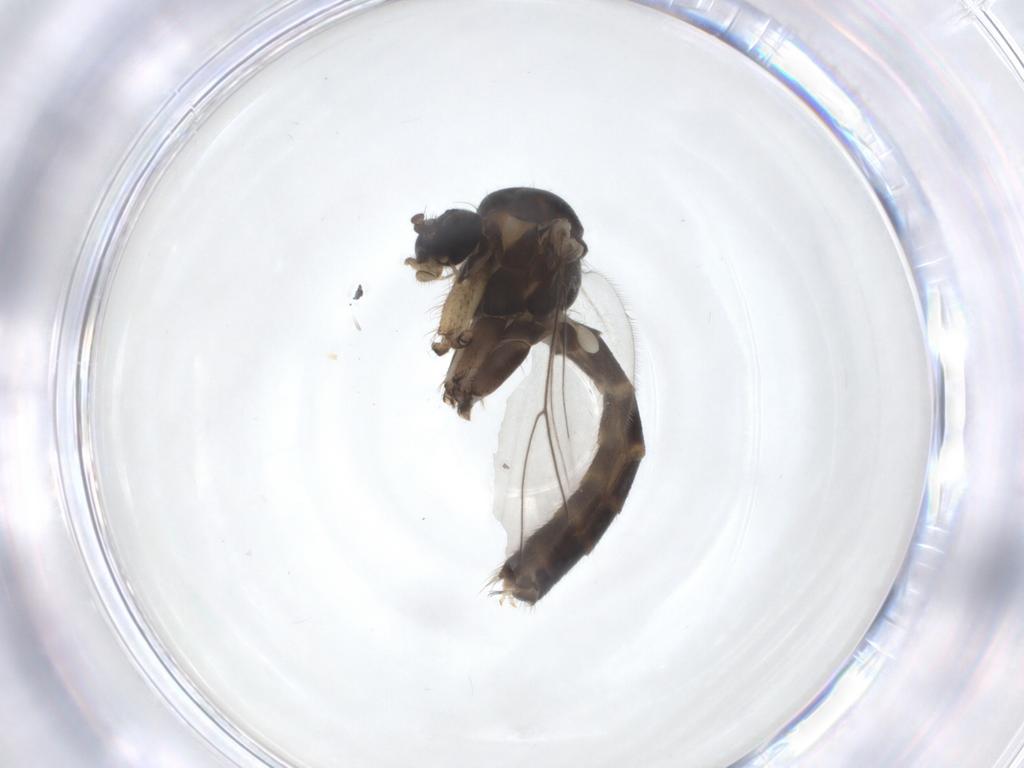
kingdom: Animalia
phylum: Arthropoda
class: Insecta
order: Diptera
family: Mycetophilidae
